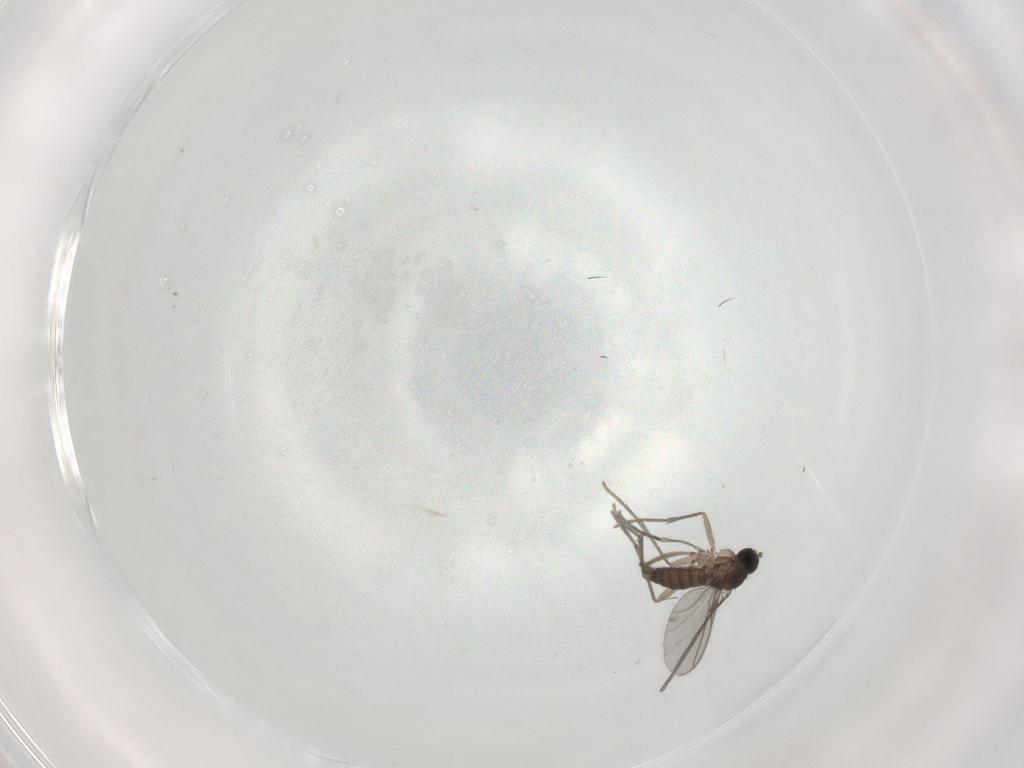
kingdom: Animalia
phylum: Arthropoda
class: Insecta
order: Diptera
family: Sciaridae
